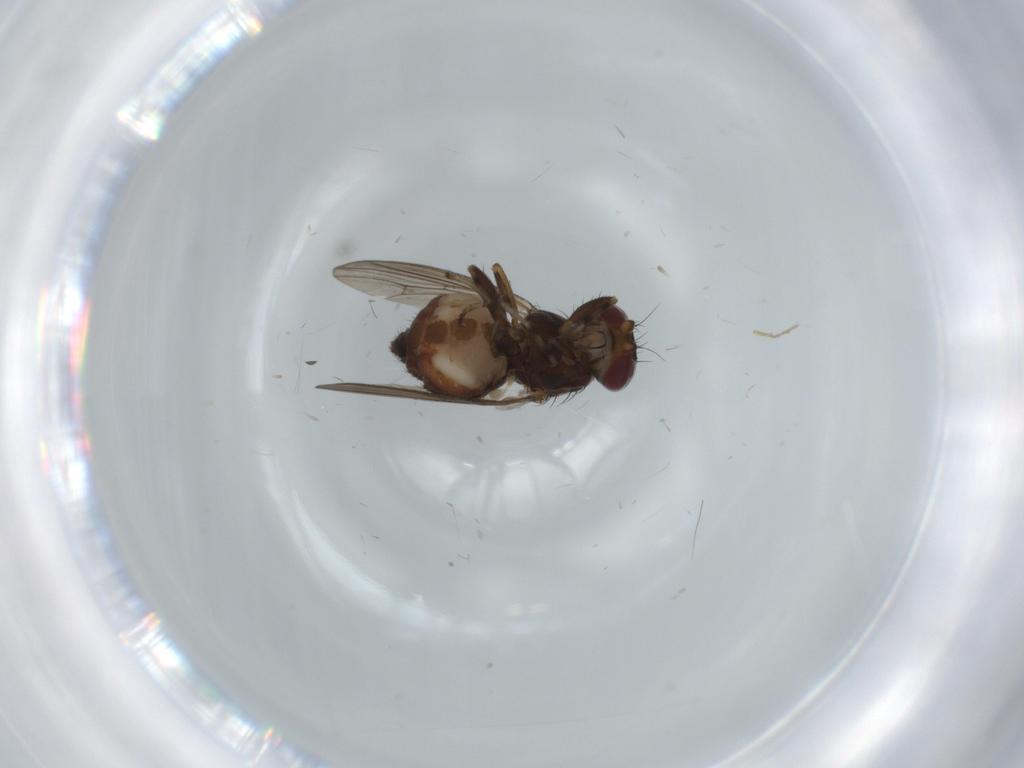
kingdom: Animalia
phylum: Arthropoda
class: Insecta
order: Diptera
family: Heleomyzidae
